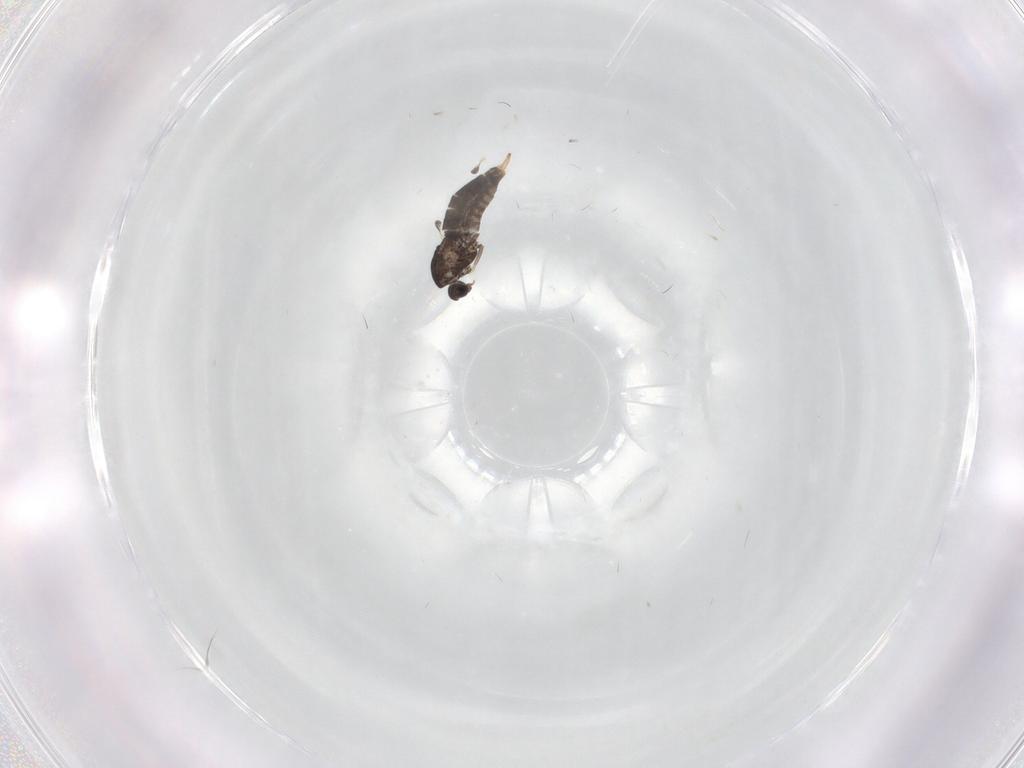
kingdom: Animalia
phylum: Arthropoda
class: Insecta
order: Diptera
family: Cecidomyiidae
